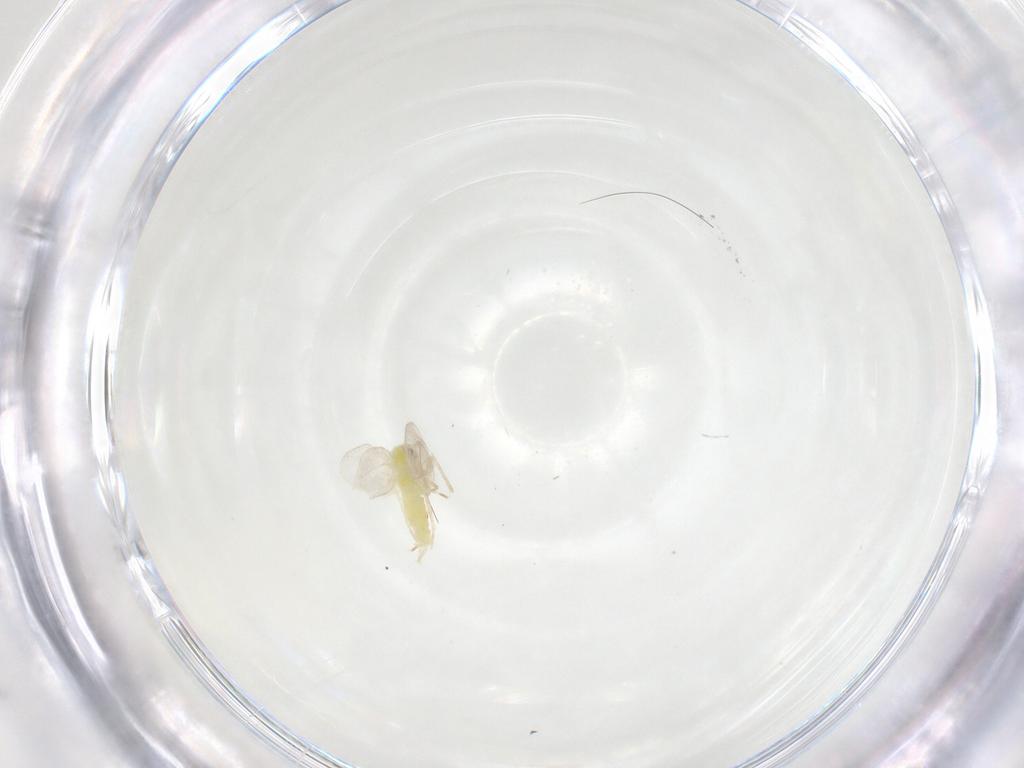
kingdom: Animalia
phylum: Arthropoda
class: Insecta
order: Hemiptera
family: Aleyrodidae
